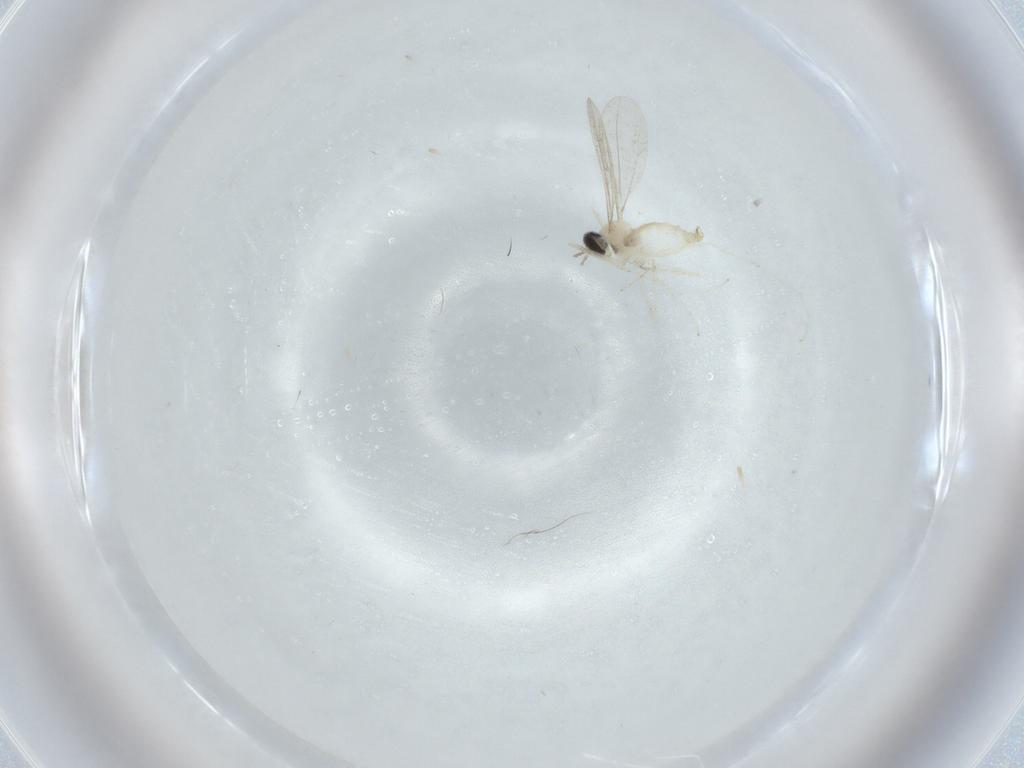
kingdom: Animalia
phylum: Arthropoda
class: Insecta
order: Diptera
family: Cecidomyiidae
